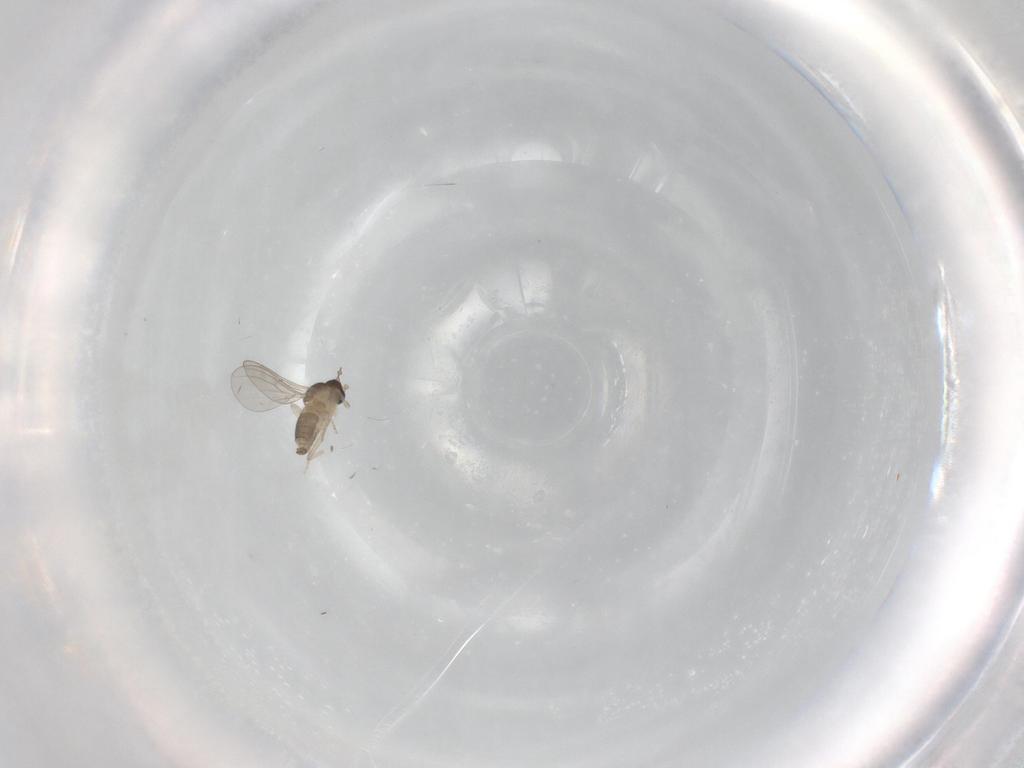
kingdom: Animalia
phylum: Arthropoda
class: Insecta
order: Diptera
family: Cecidomyiidae
